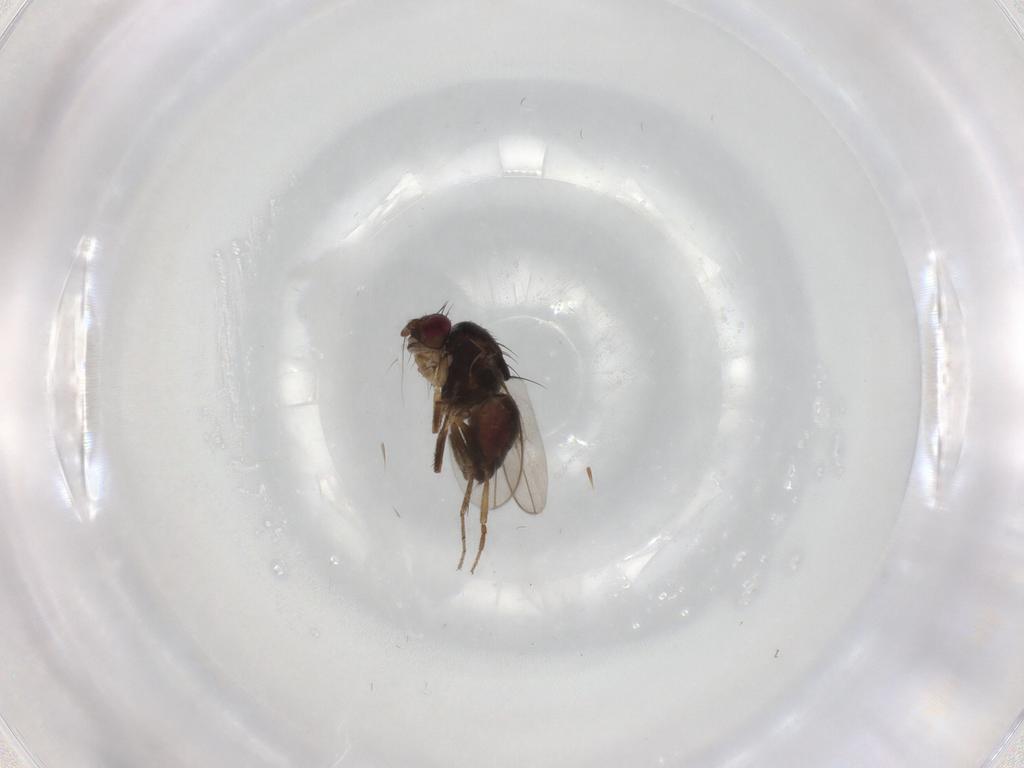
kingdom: Animalia
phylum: Arthropoda
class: Insecta
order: Diptera
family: Sphaeroceridae
